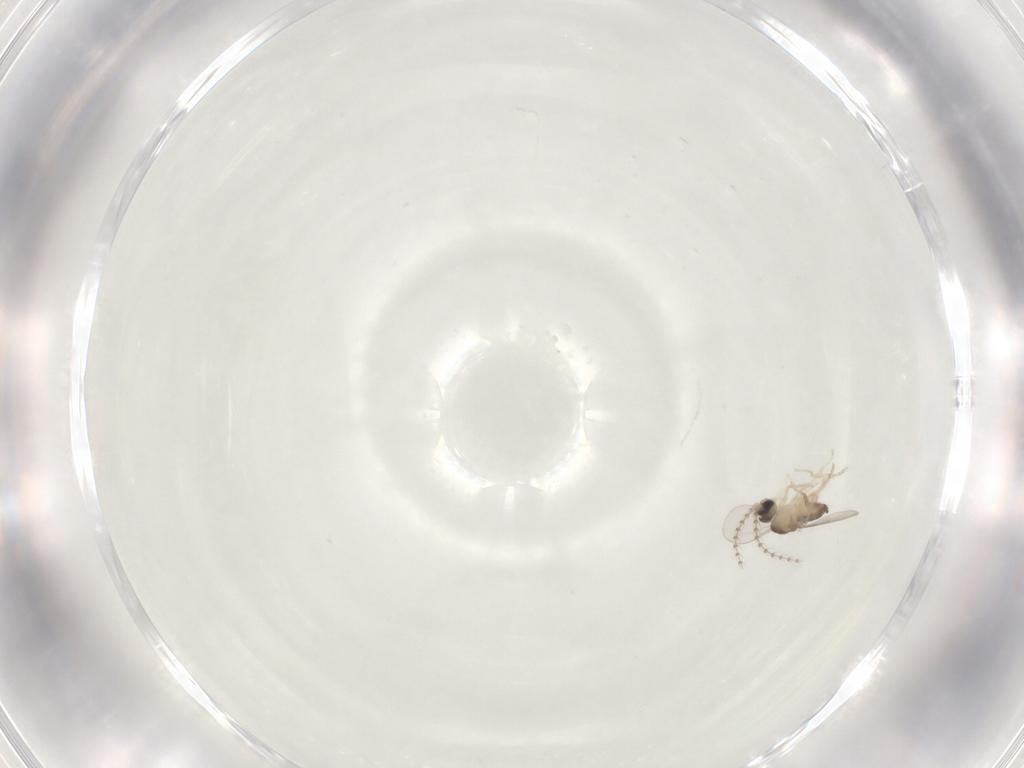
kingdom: Animalia
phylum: Arthropoda
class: Insecta
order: Diptera
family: Cecidomyiidae
